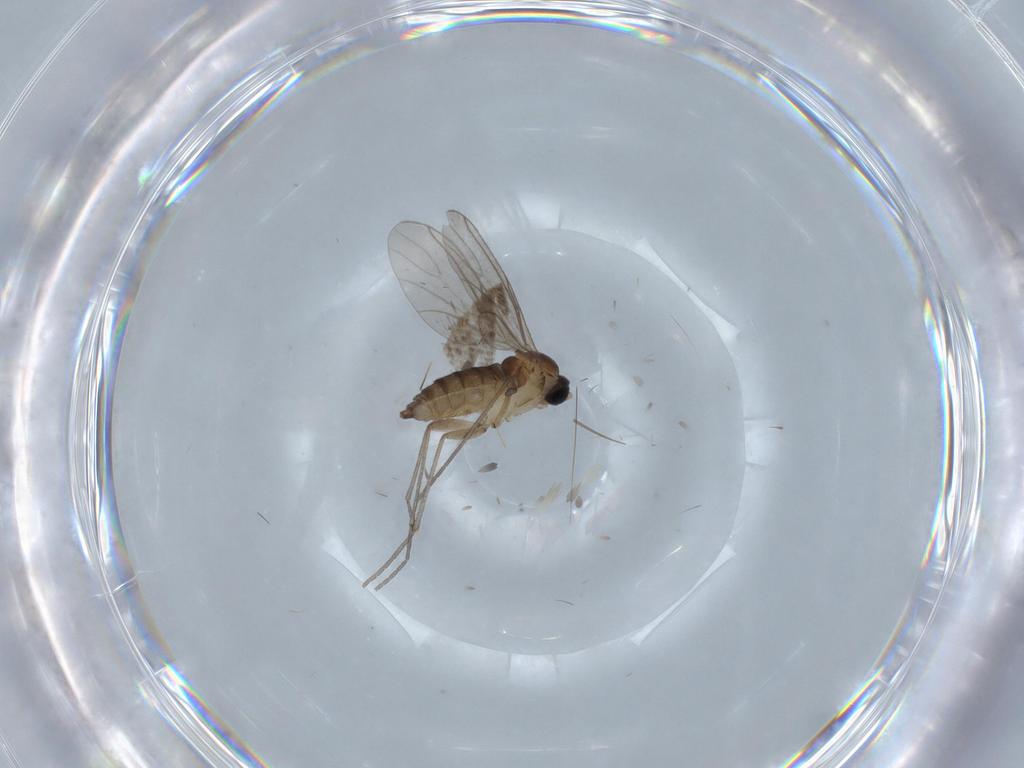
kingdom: Animalia
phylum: Arthropoda
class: Insecta
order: Diptera
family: Sciaridae
